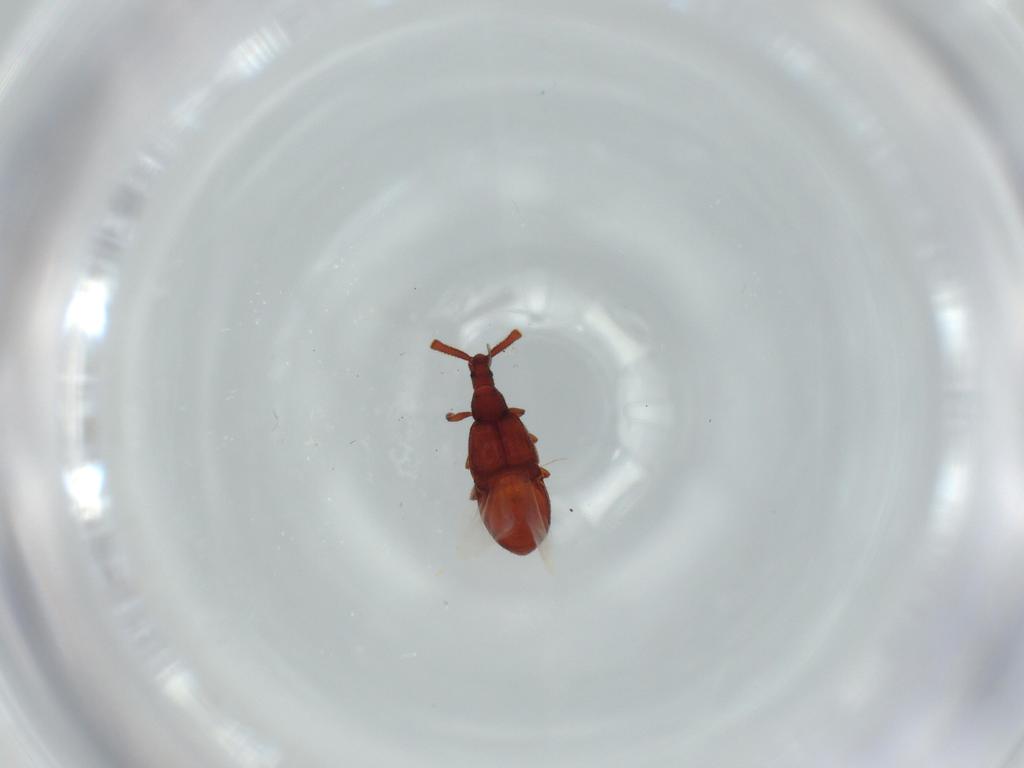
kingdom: Animalia
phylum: Arthropoda
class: Insecta
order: Coleoptera
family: Staphylinidae
